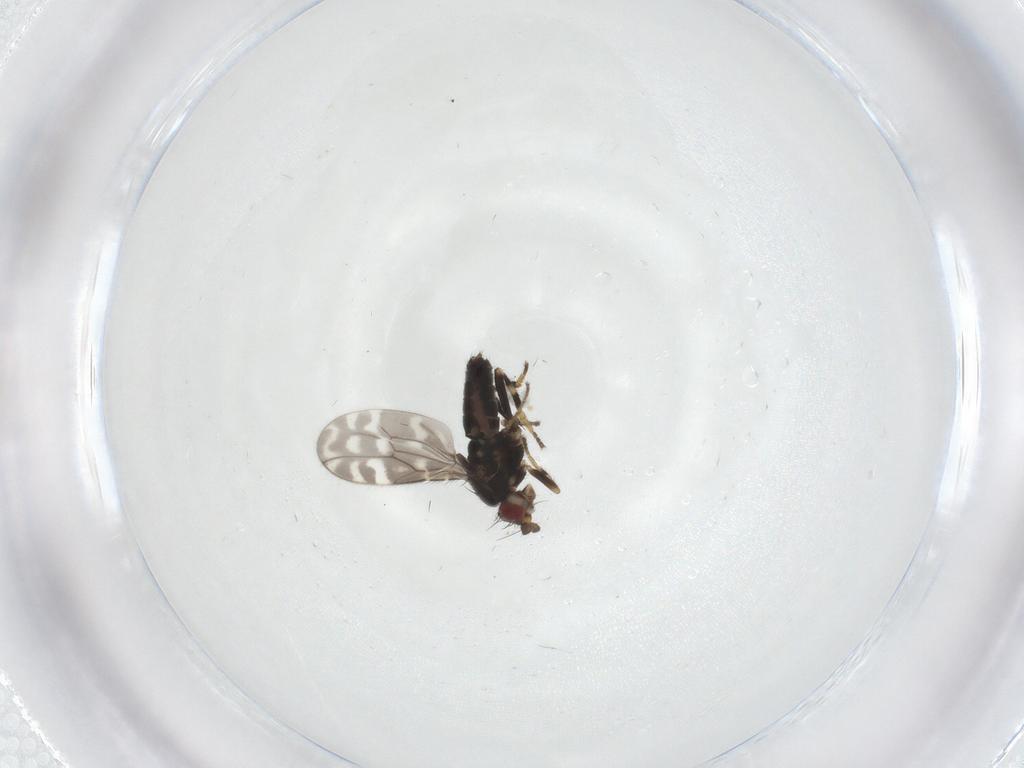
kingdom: Animalia
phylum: Arthropoda
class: Insecta
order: Diptera
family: Sphaeroceridae
